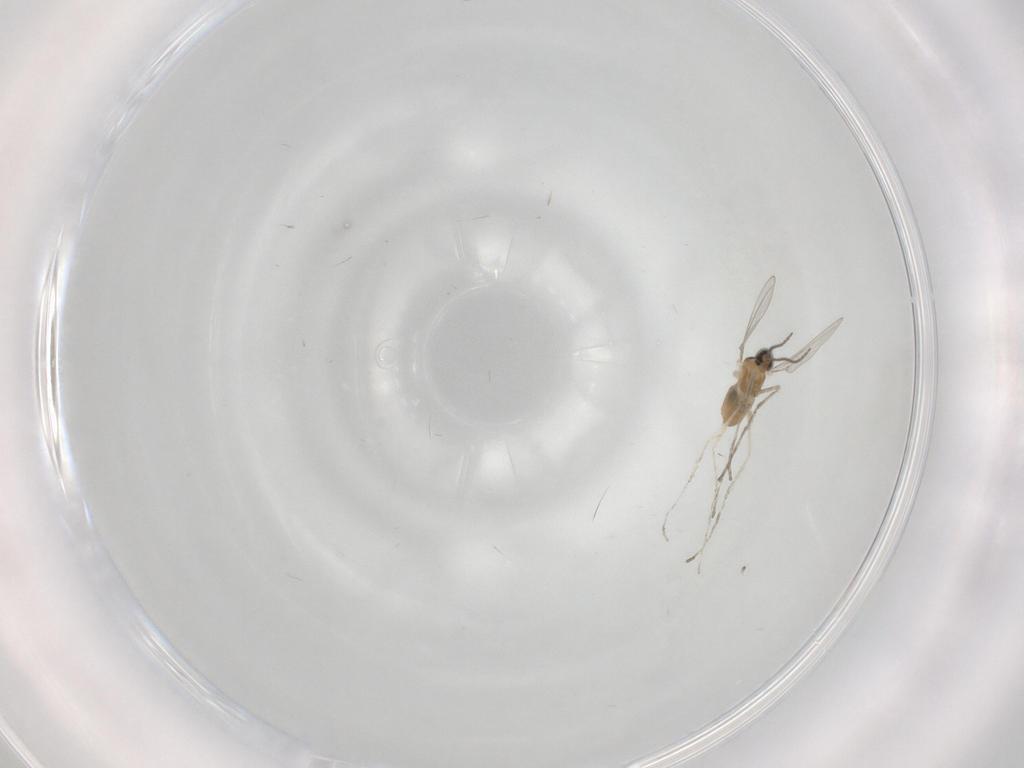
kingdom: Animalia
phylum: Arthropoda
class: Insecta
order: Diptera
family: Cecidomyiidae
